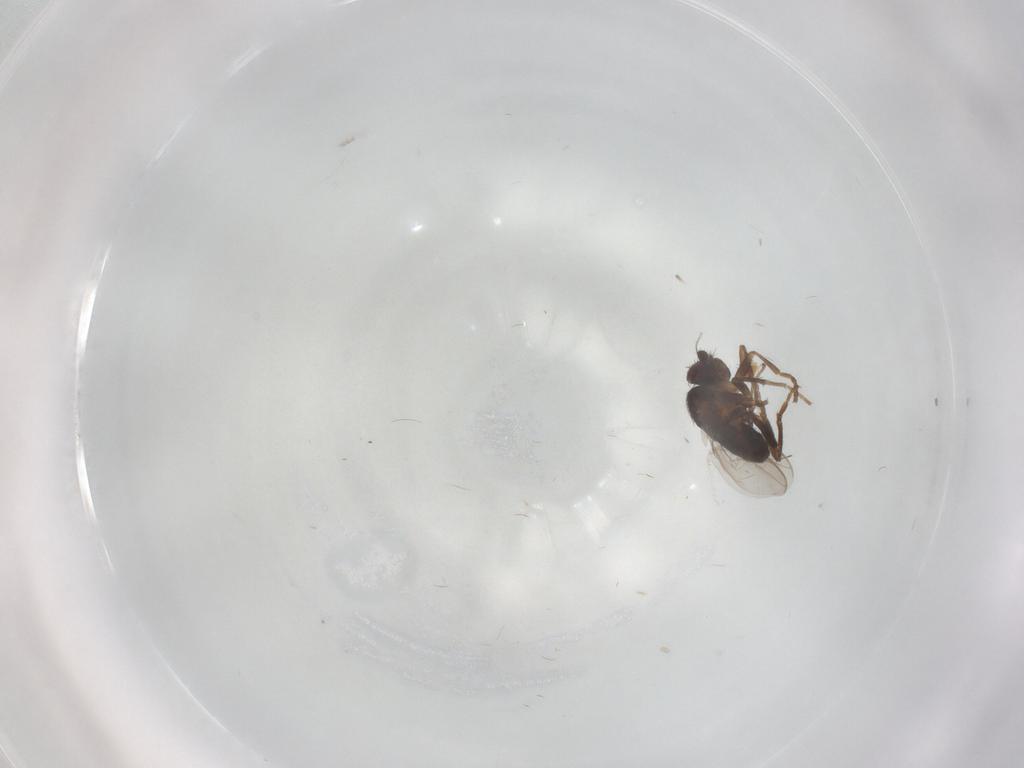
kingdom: Animalia
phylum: Arthropoda
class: Insecta
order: Diptera
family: Sphaeroceridae
